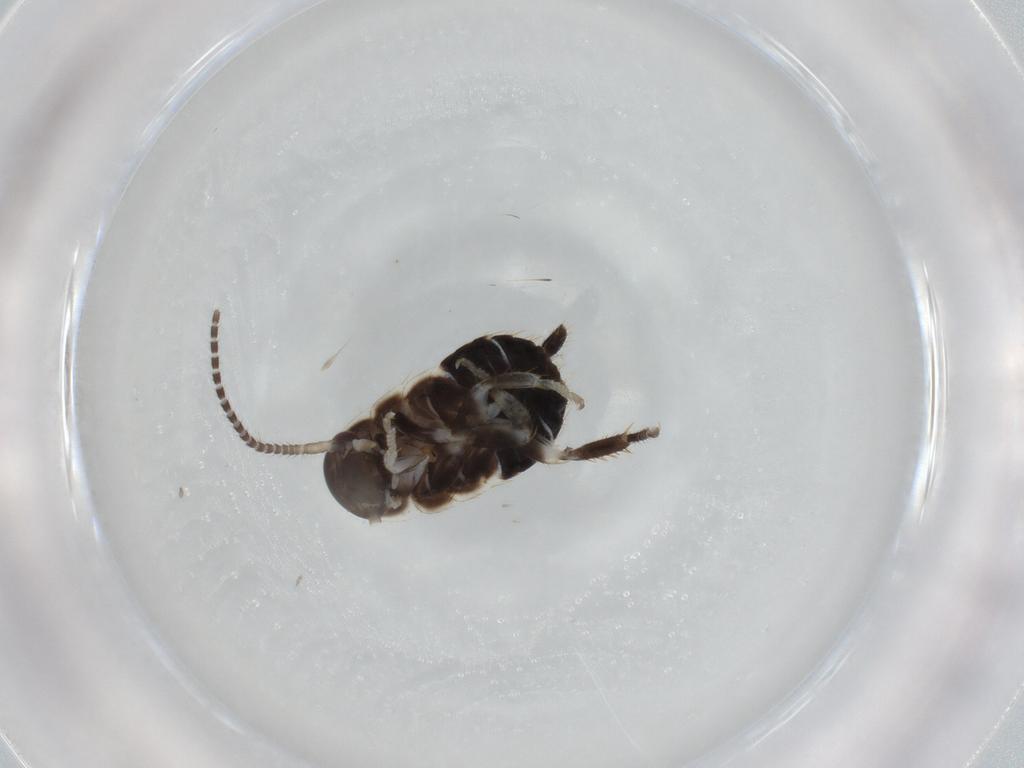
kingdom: Animalia
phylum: Arthropoda
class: Insecta
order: Blattodea
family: Ectobiidae
